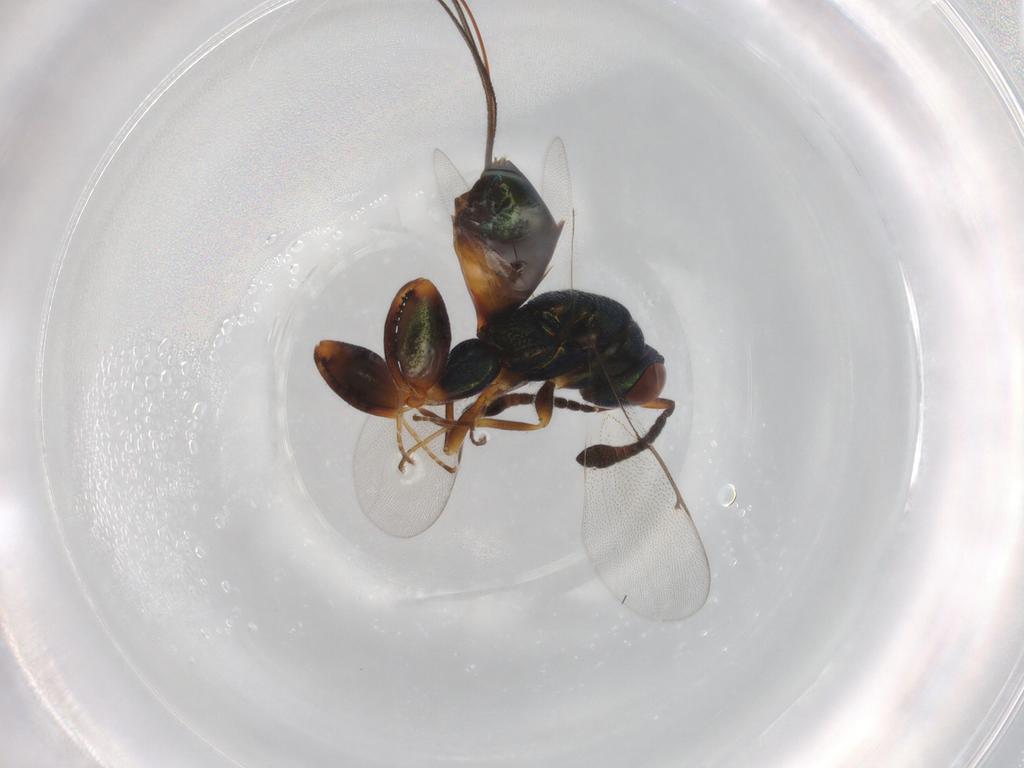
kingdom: Animalia
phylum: Arthropoda
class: Insecta
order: Hymenoptera
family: Torymidae
